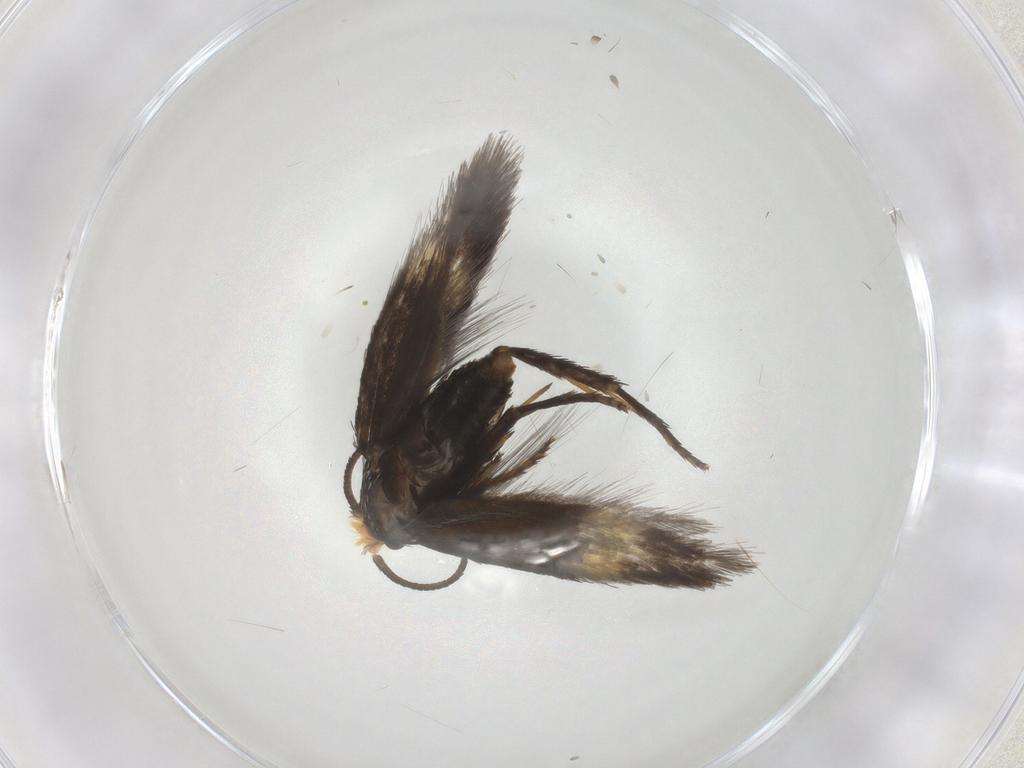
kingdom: Animalia
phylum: Arthropoda
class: Insecta
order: Lepidoptera
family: Nepticulidae
